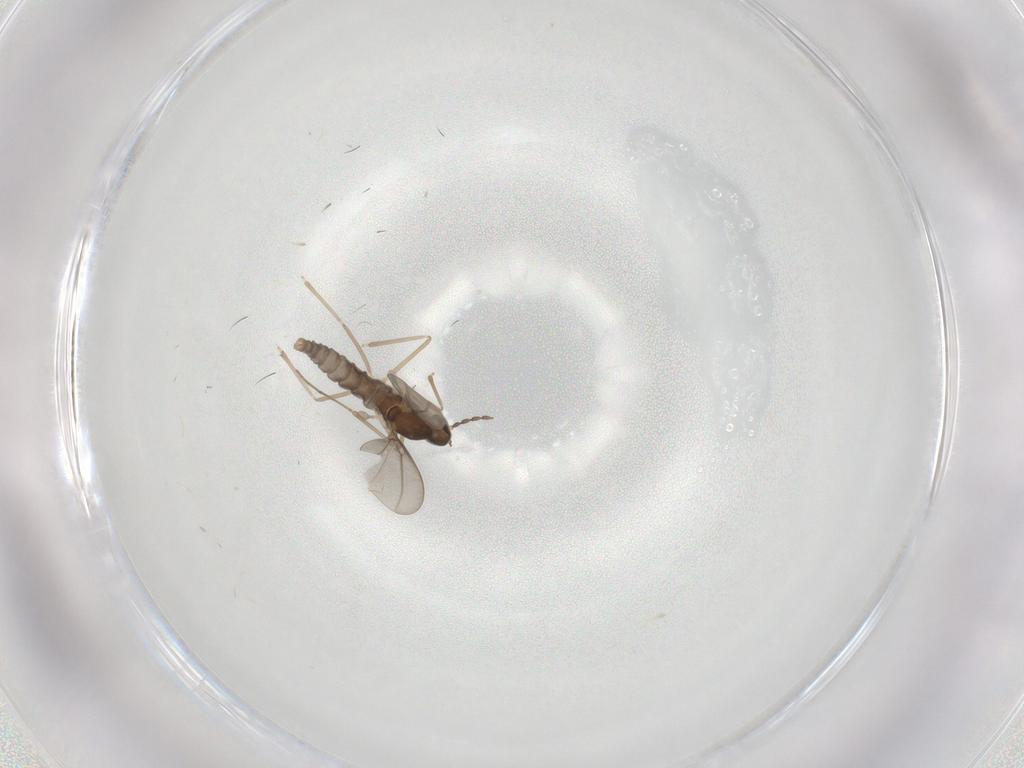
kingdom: Animalia
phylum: Arthropoda
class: Insecta
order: Diptera
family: Cecidomyiidae
